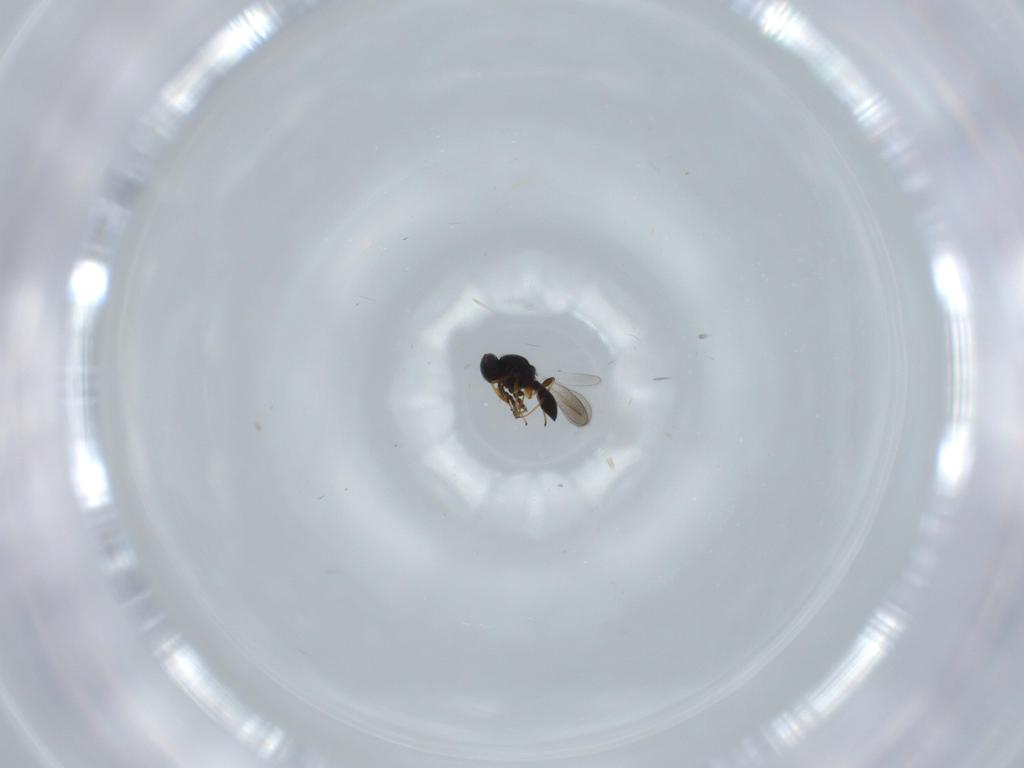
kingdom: Animalia
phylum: Arthropoda
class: Insecta
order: Hymenoptera
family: Platygastridae
